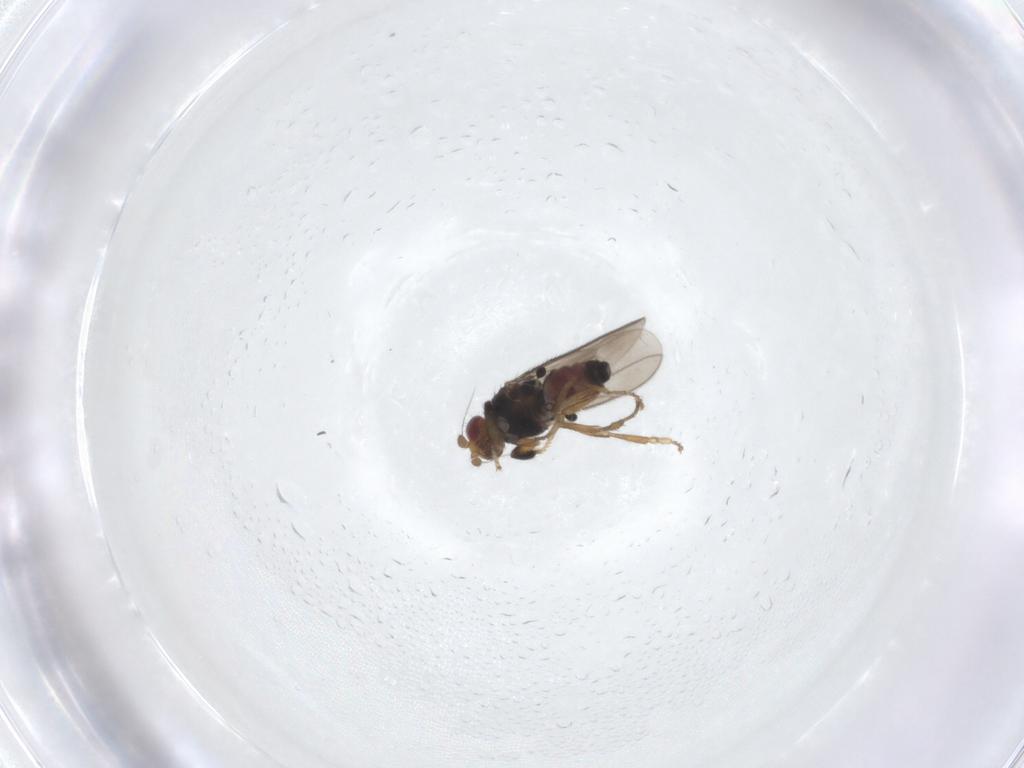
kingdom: Animalia
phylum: Arthropoda
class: Insecta
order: Diptera
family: Sphaeroceridae
